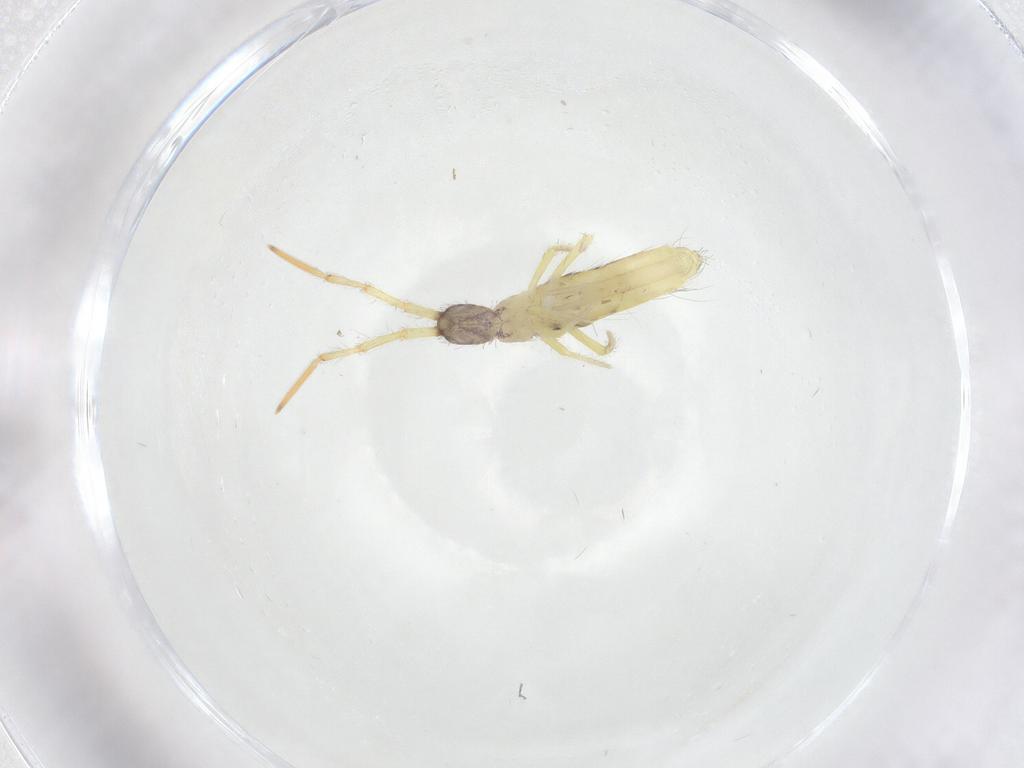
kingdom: Animalia
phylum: Arthropoda
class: Collembola
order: Entomobryomorpha
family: Entomobryidae
